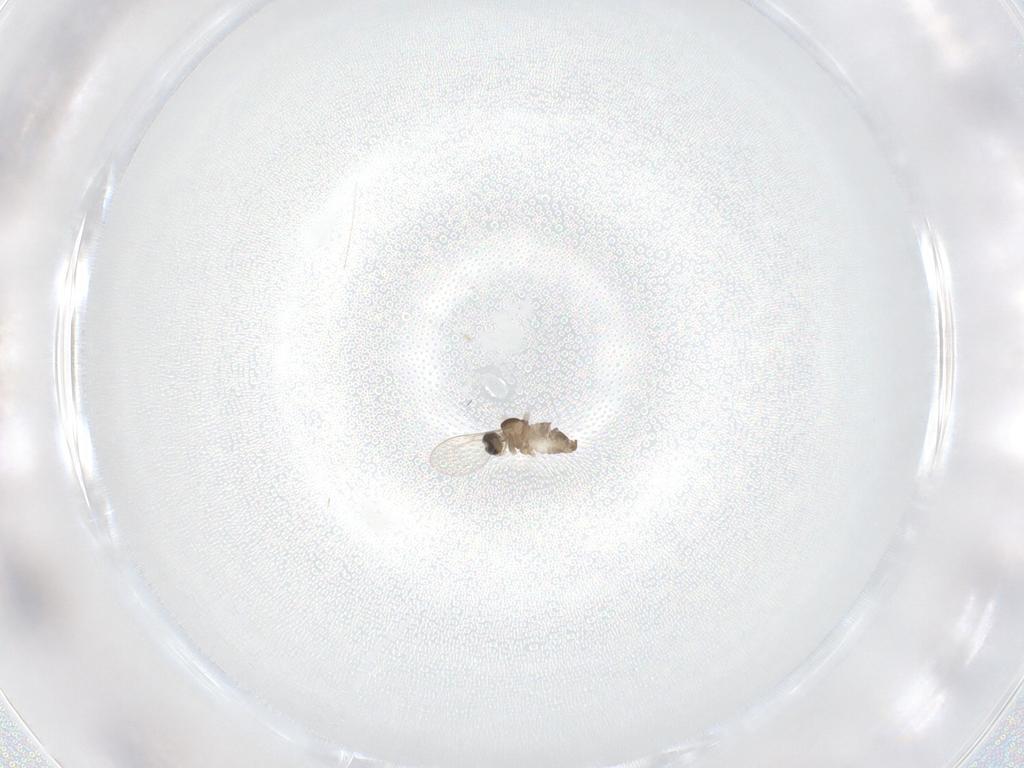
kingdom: Animalia
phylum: Arthropoda
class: Insecta
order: Diptera
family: Cecidomyiidae
